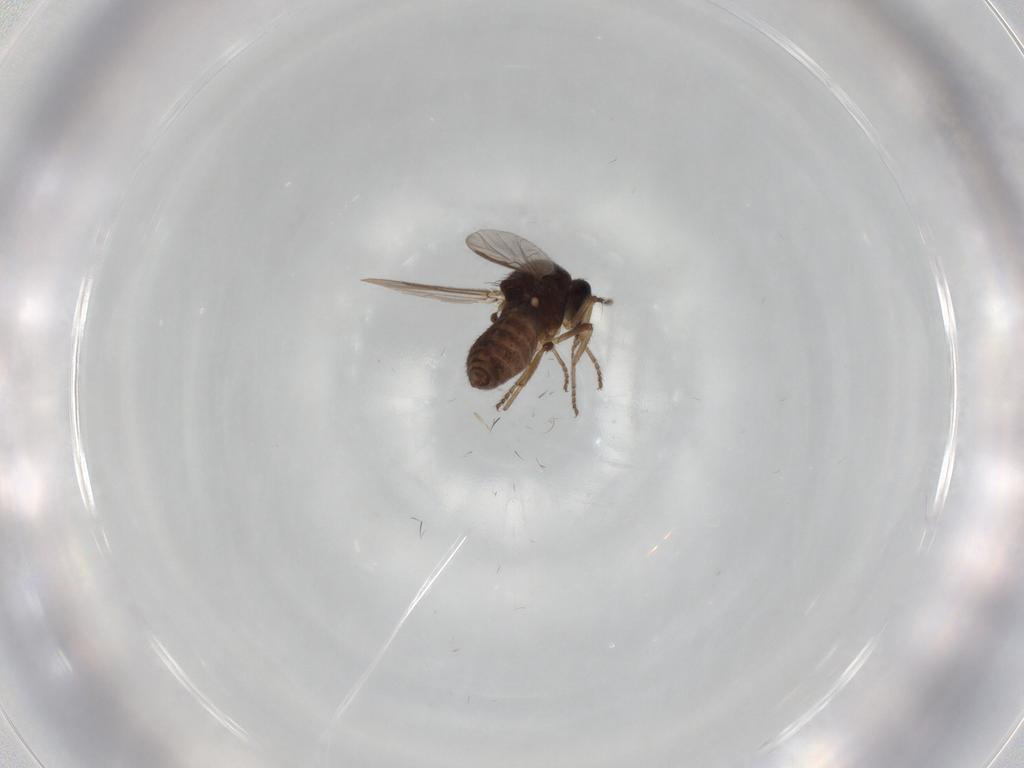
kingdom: Animalia
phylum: Arthropoda
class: Insecta
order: Diptera
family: Ceratopogonidae
